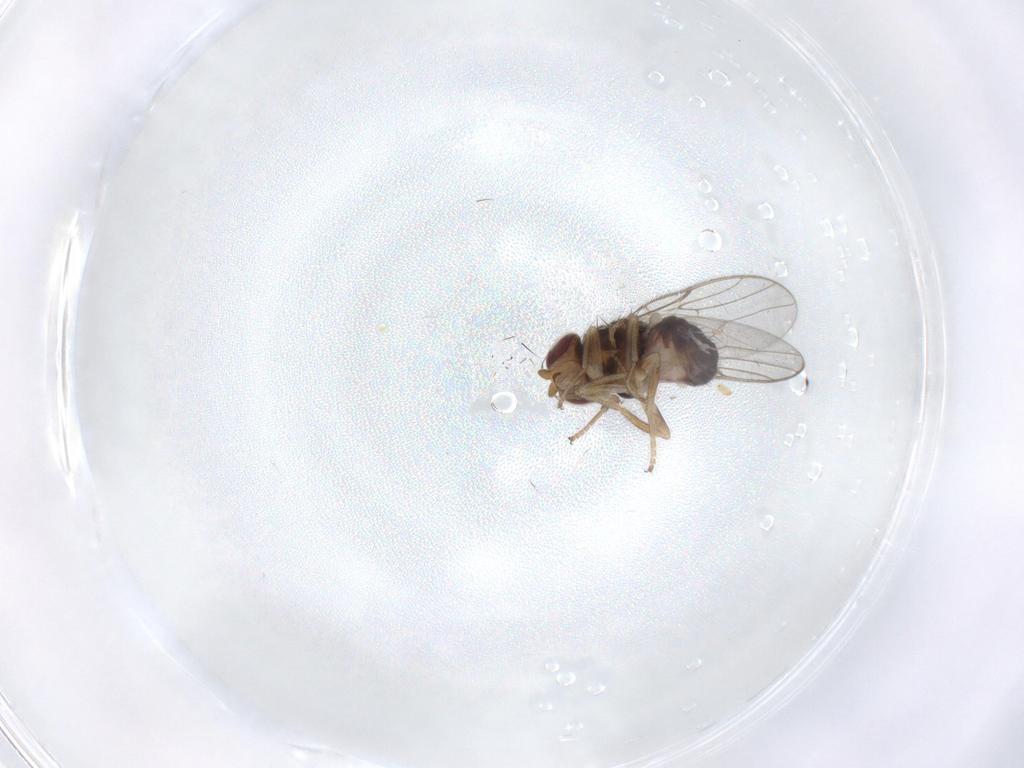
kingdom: Animalia
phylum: Arthropoda
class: Insecta
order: Diptera
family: Chloropidae
